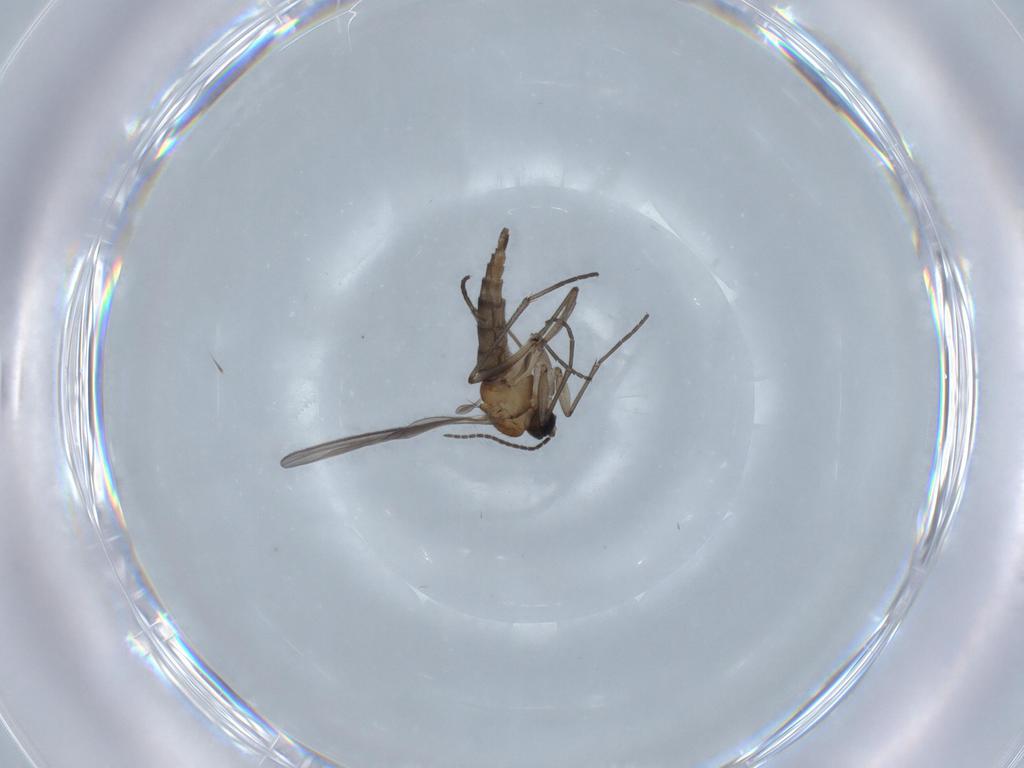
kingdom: Animalia
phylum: Arthropoda
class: Insecta
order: Diptera
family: Sciaridae
